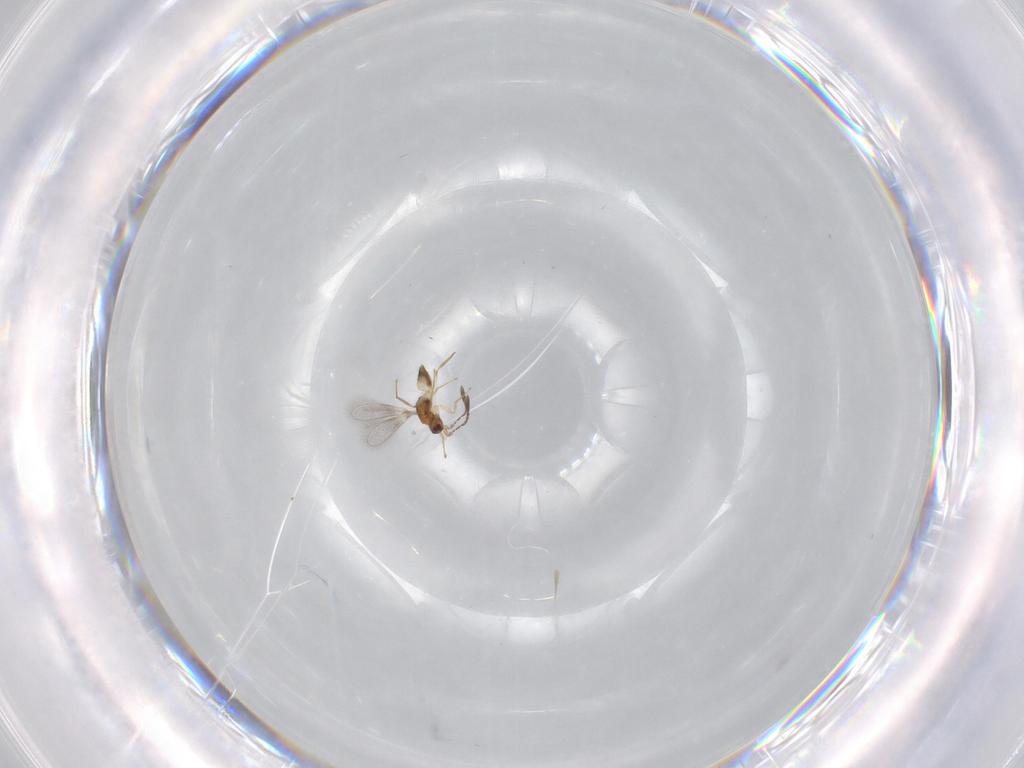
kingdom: Animalia
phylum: Arthropoda
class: Insecta
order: Hymenoptera
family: Mymaridae
